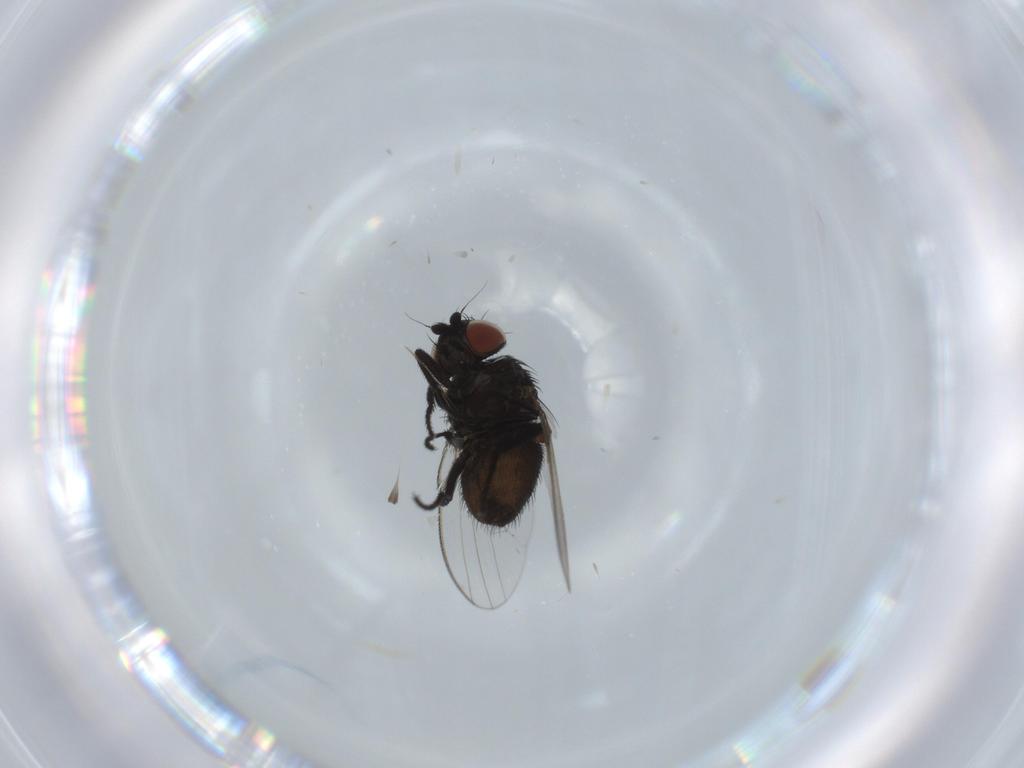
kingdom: Animalia
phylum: Arthropoda
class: Insecta
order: Diptera
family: Milichiidae
